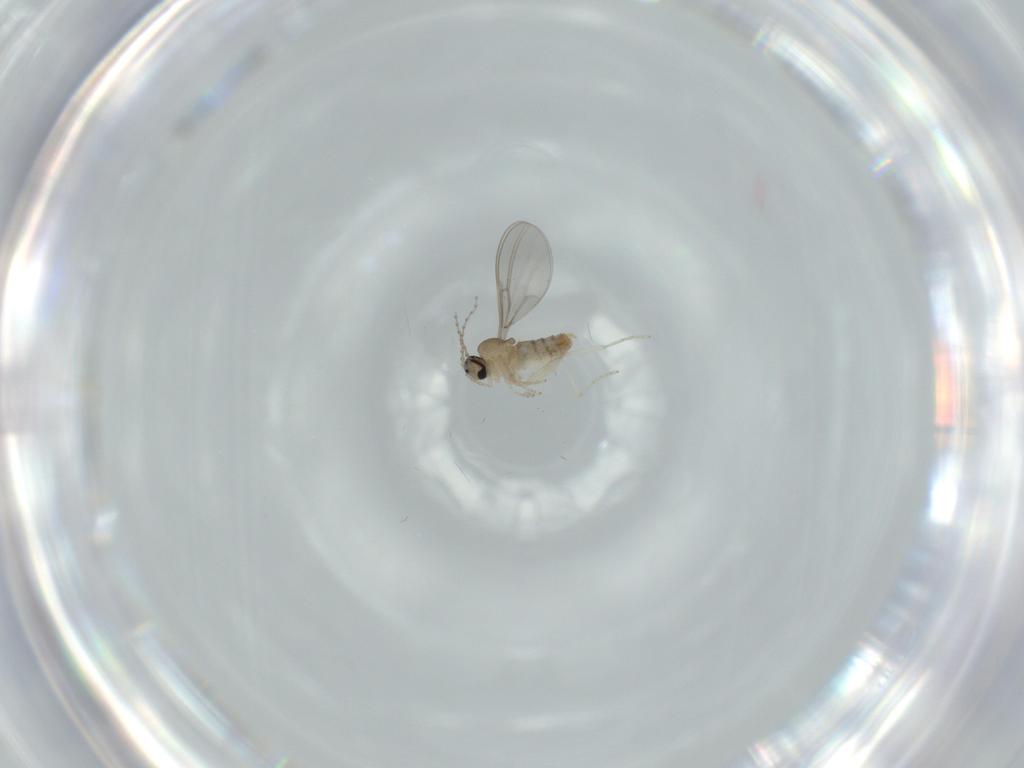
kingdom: Animalia
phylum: Arthropoda
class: Insecta
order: Diptera
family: Cecidomyiidae
